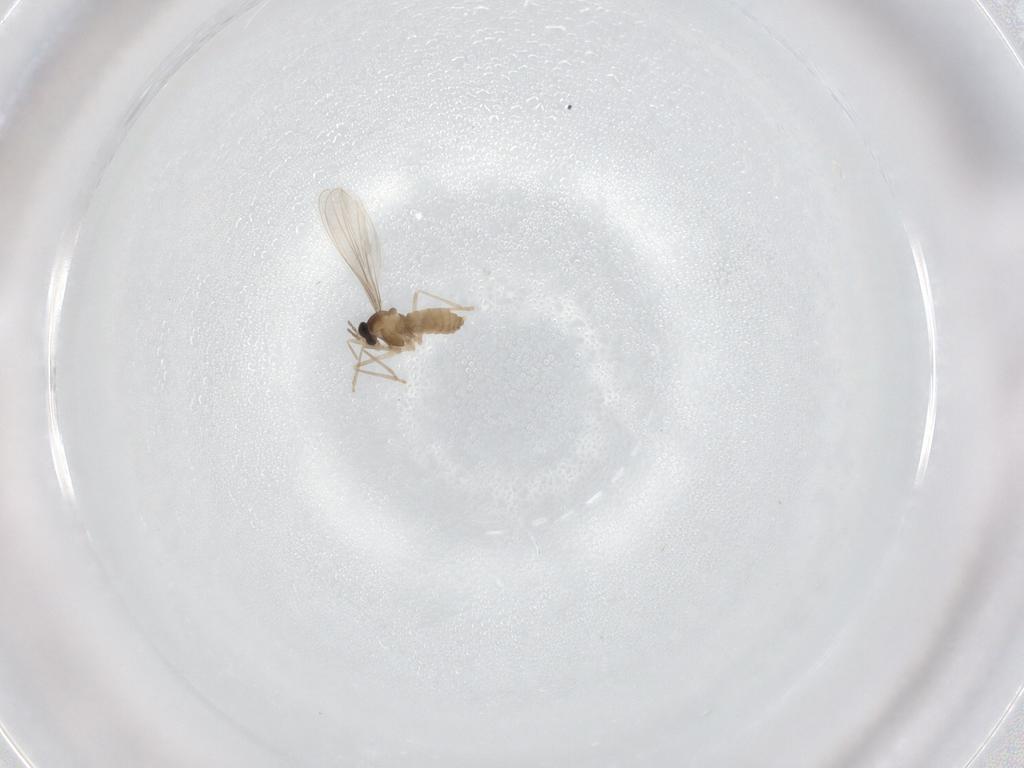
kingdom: Animalia
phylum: Arthropoda
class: Insecta
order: Diptera
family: Cecidomyiidae
